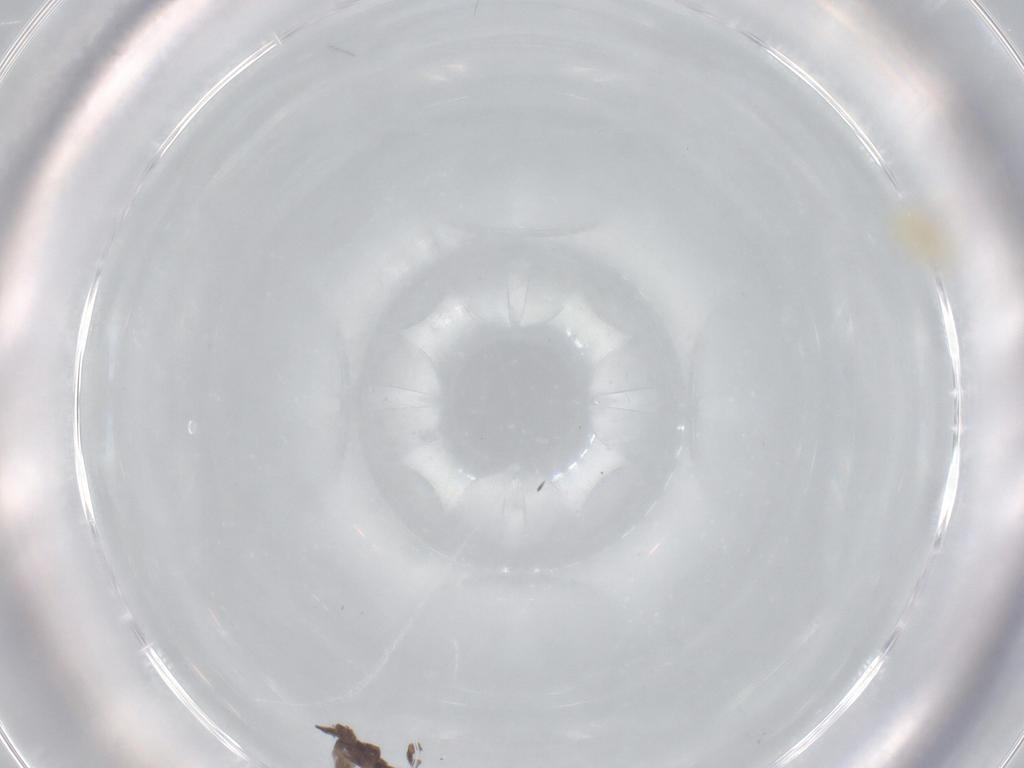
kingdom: Animalia
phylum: Arthropoda
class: Insecta
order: Hemiptera
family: Aleyrodidae
